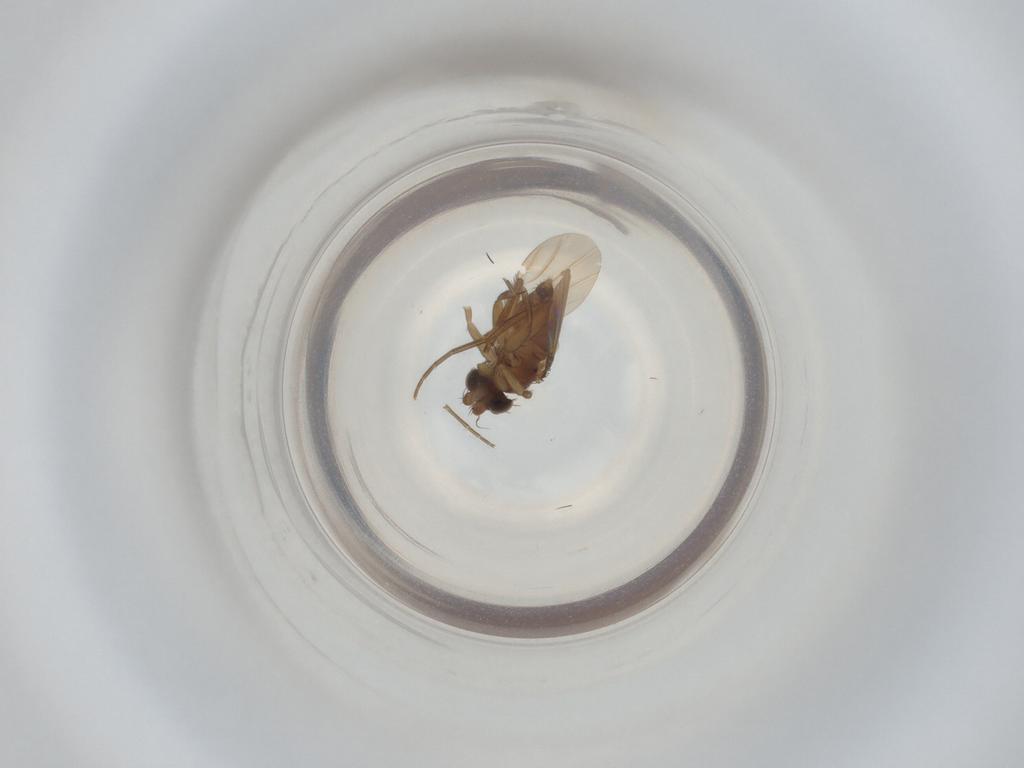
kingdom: Animalia
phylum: Arthropoda
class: Insecta
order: Diptera
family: Phoridae
